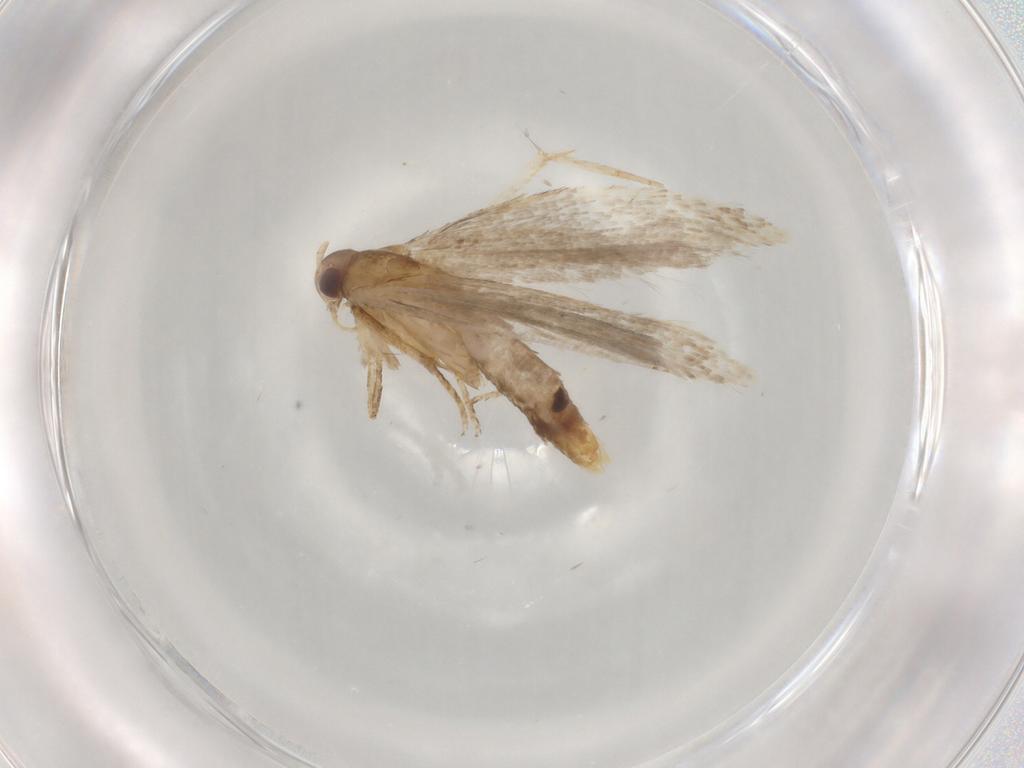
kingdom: Animalia
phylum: Arthropoda
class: Insecta
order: Lepidoptera
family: Gelechiidae
